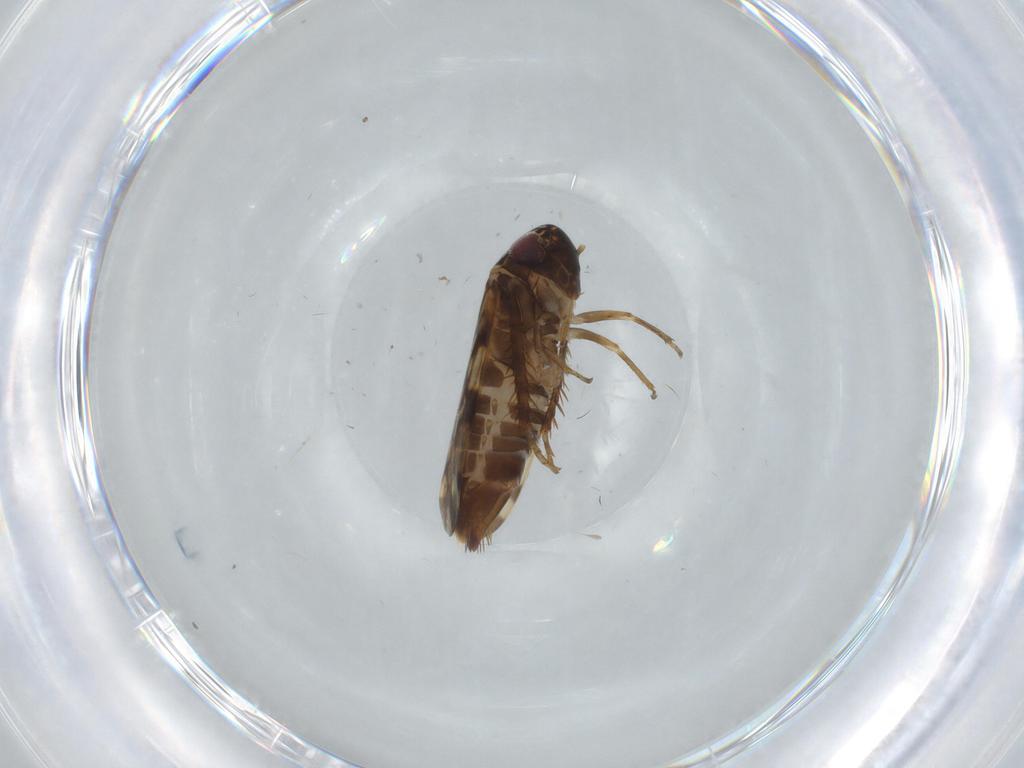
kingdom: Animalia
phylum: Arthropoda
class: Insecta
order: Hemiptera
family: Cicadellidae
